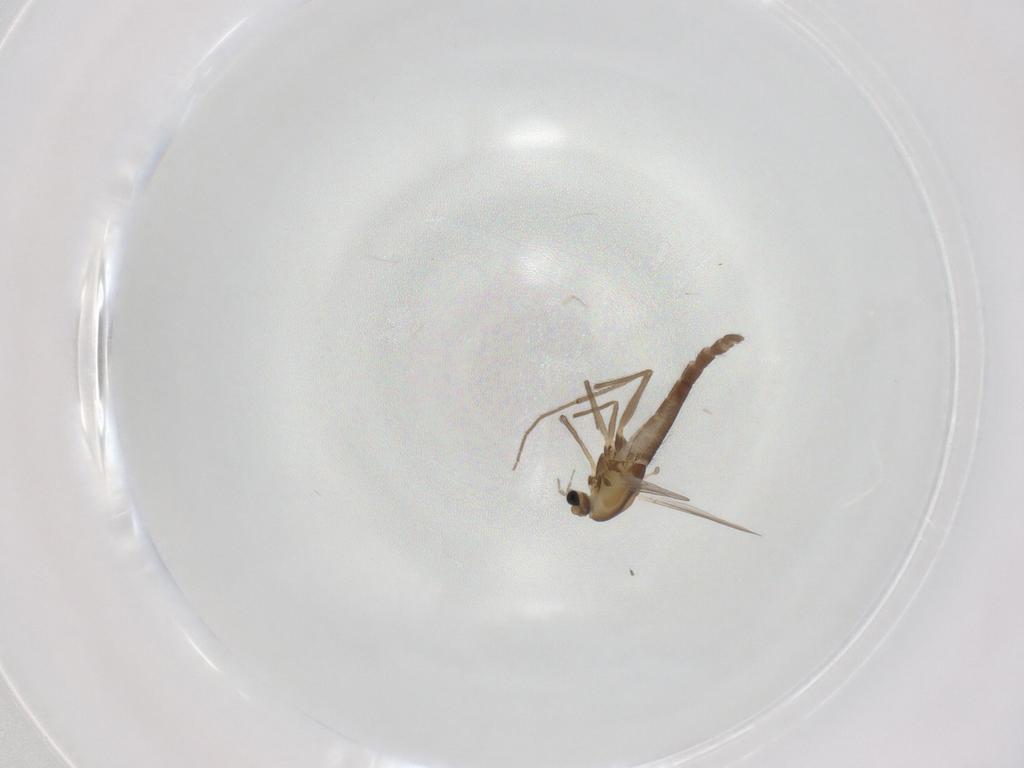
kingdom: Animalia
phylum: Arthropoda
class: Insecta
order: Diptera
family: Chironomidae
